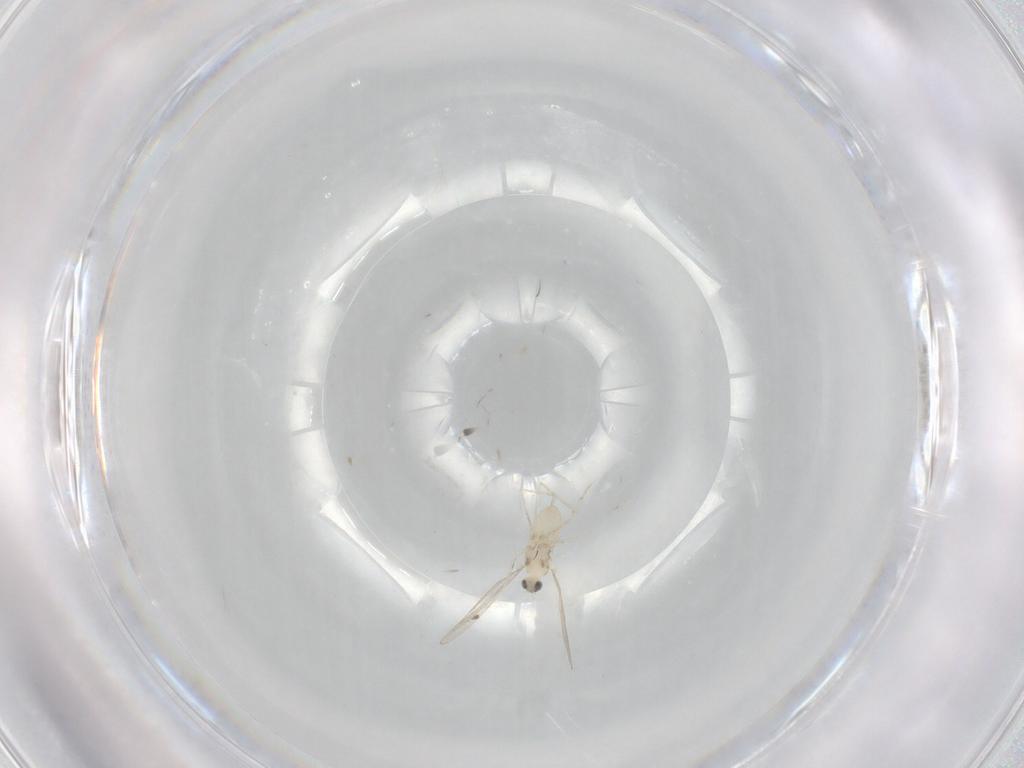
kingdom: Animalia
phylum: Arthropoda
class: Insecta
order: Diptera
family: Cecidomyiidae
